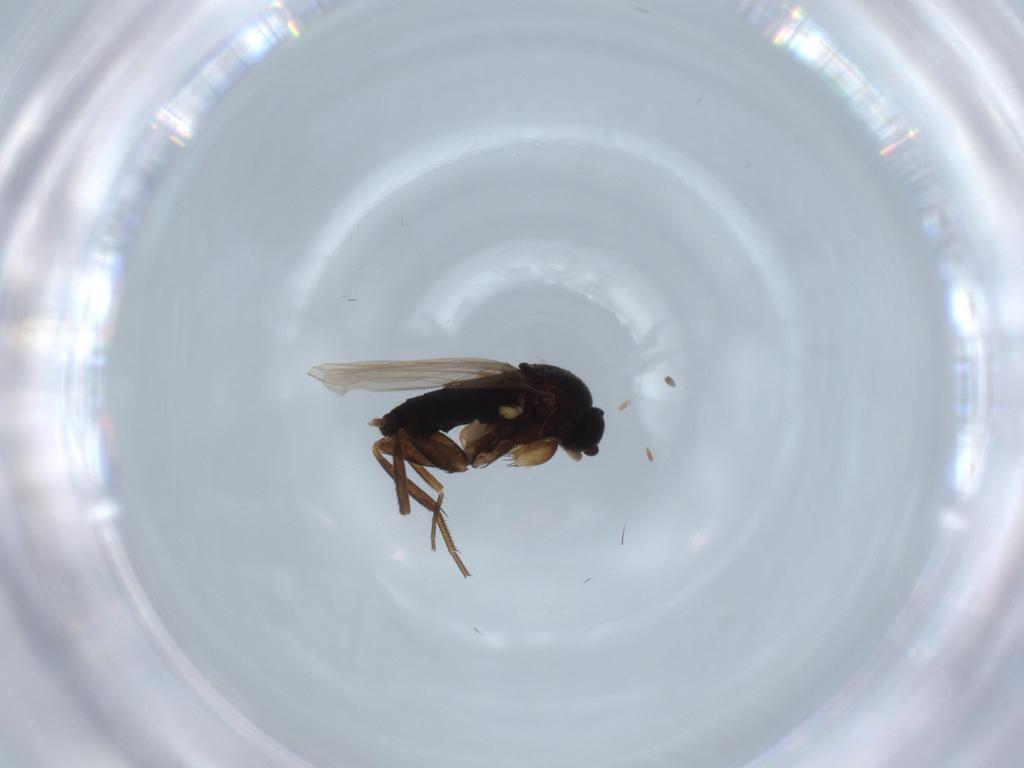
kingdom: Animalia
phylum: Arthropoda
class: Insecta
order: Diptera
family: Phoridae
